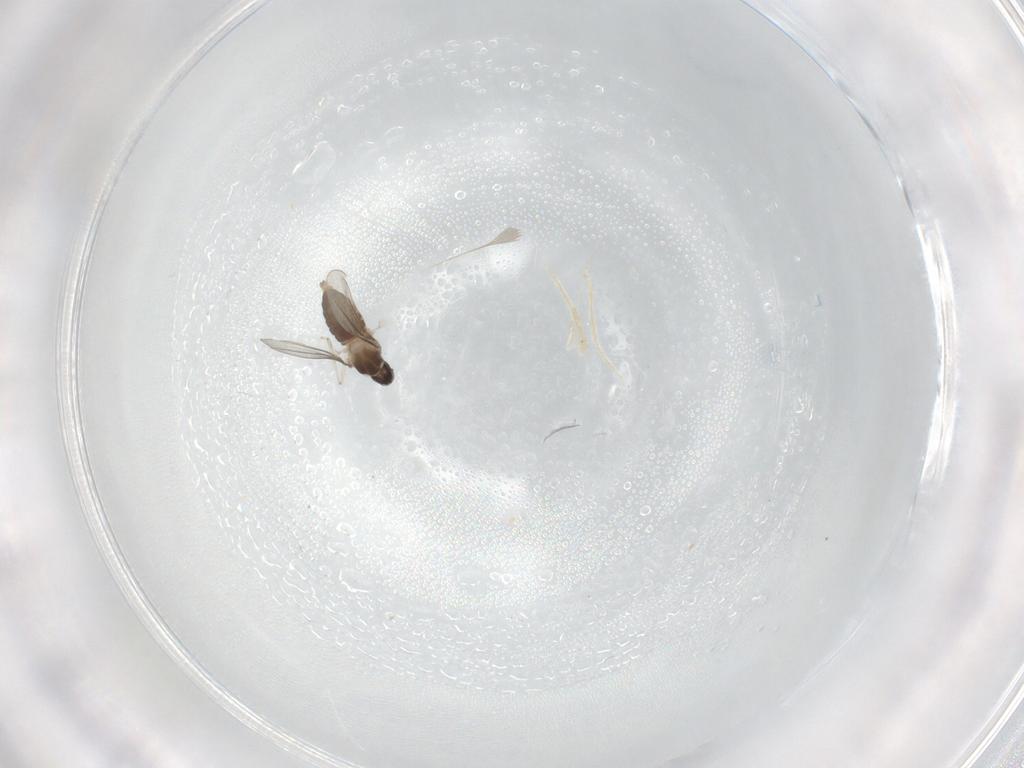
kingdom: Animalia
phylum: Arthropoda
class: Insecta
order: Diptera
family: Cecidomyiidae
